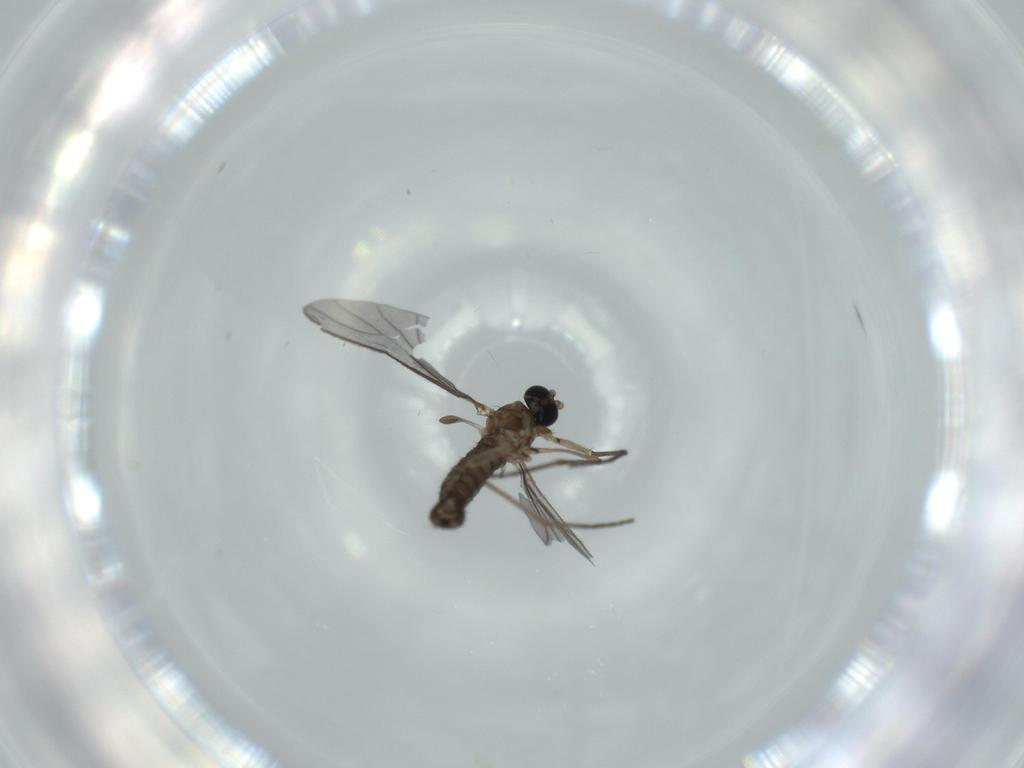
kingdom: Animalia
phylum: Arthropoda
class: Insecta
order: Diptera
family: Sciaridae
